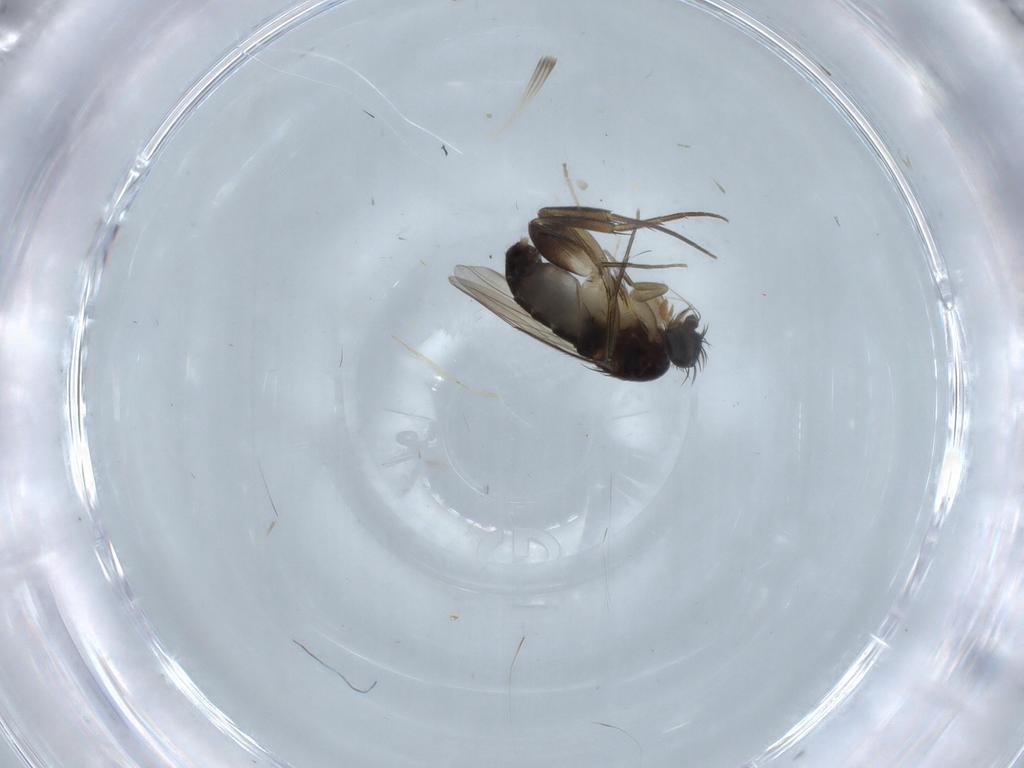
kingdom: Animalia
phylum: Arthropoda
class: Insecta
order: Diptera
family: Phoridae
